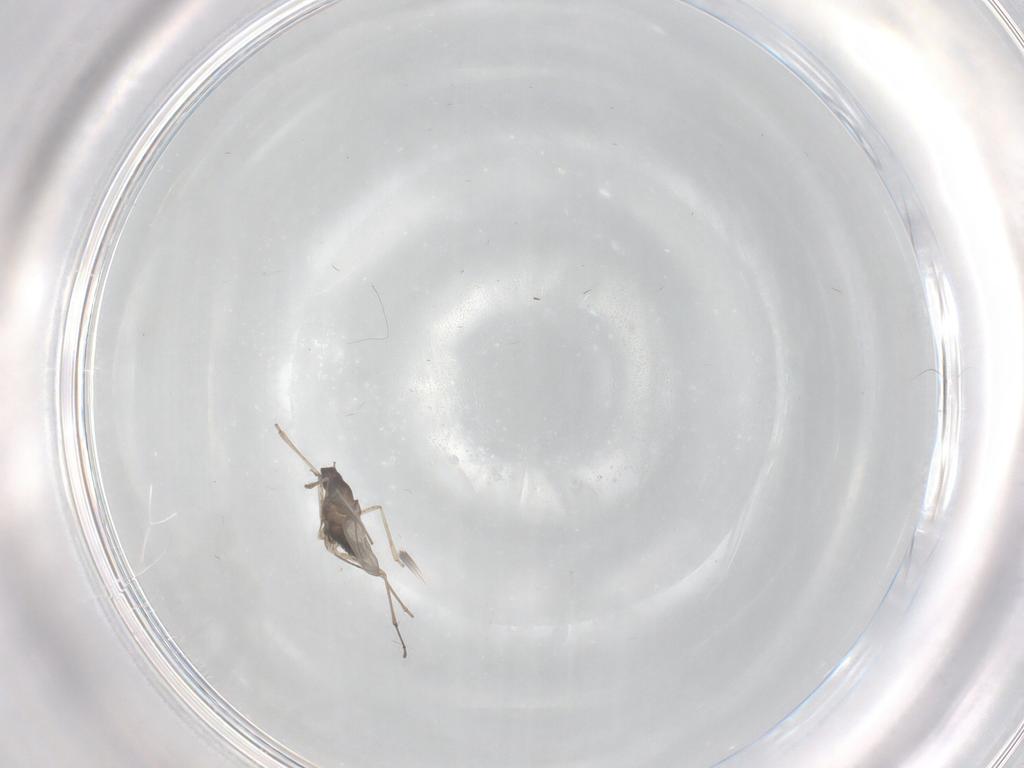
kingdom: Animalia
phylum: Arthropoda
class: Insecta
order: Diptera
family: Cecidomyiidae
